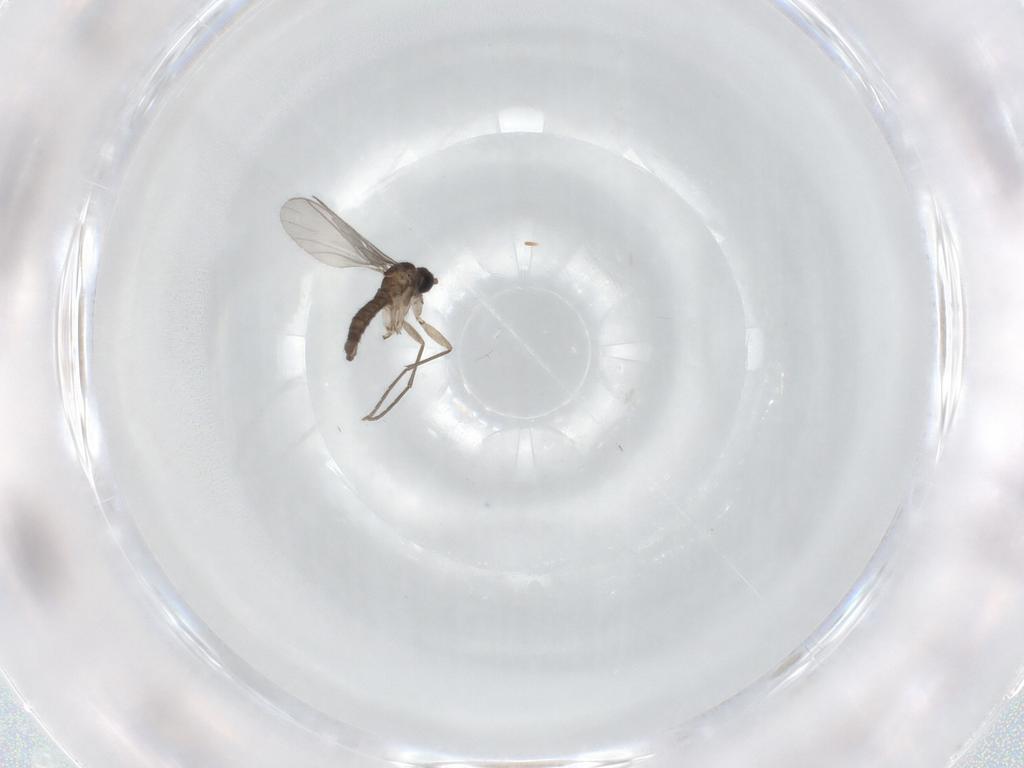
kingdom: Animalia
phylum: Arthropoda
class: Insecta
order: Diptera
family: Sciaridae
